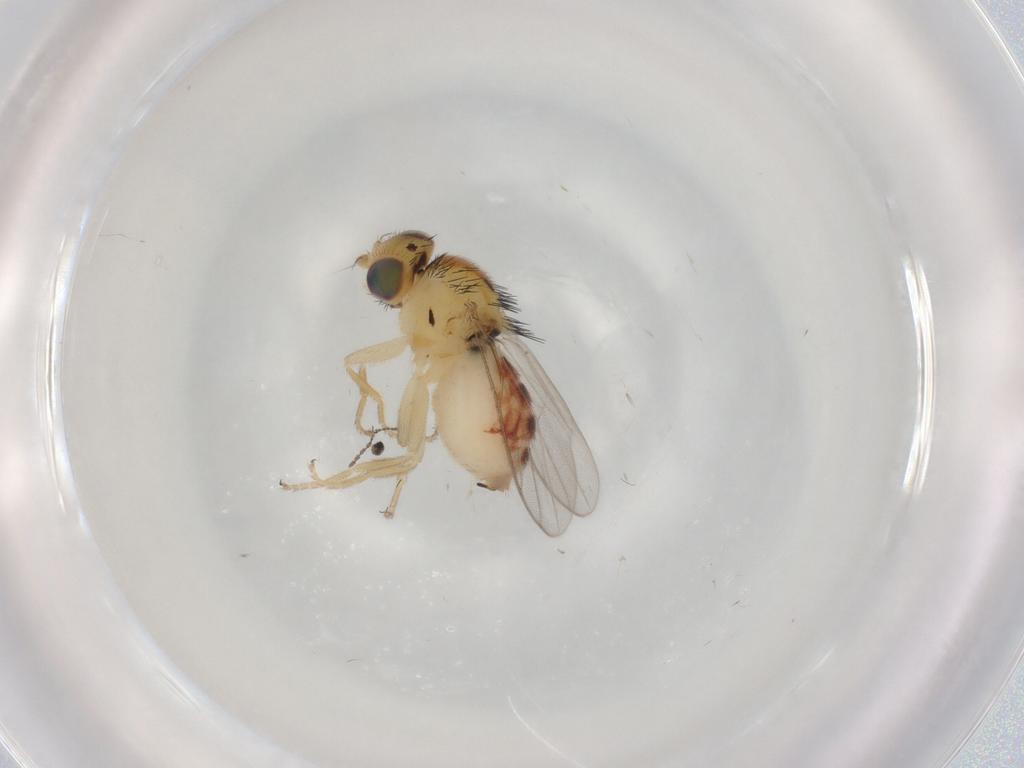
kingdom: Animalia
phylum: Arthropoda
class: Insecta
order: Diptera
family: Chloropidae
